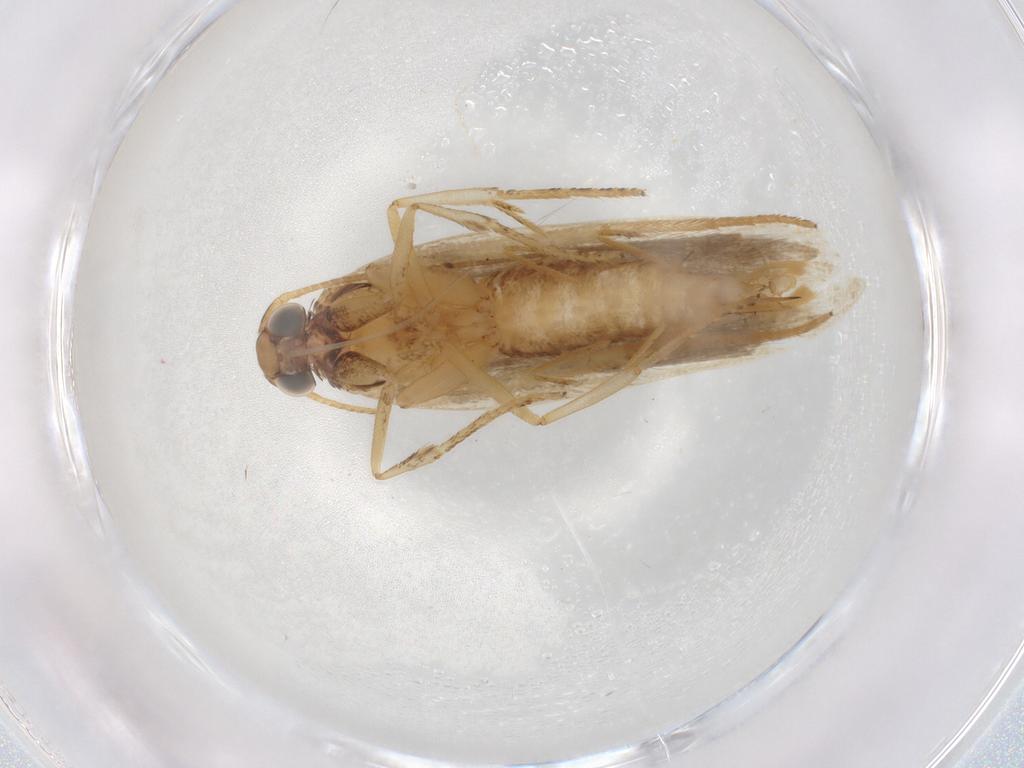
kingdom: Animalia
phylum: Arthropoda
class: Insecta
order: Lepidoptera
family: Gelechiidae
